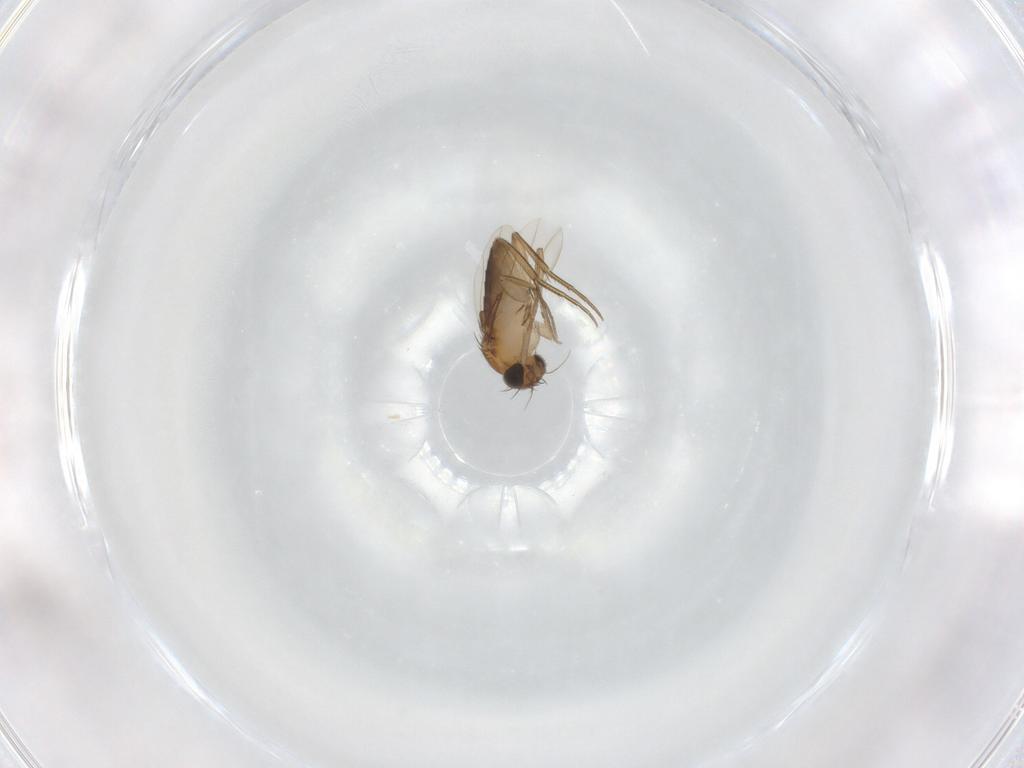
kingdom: Animalia
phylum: Arthropoda
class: Insecta
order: Diptera
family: Phoridae
